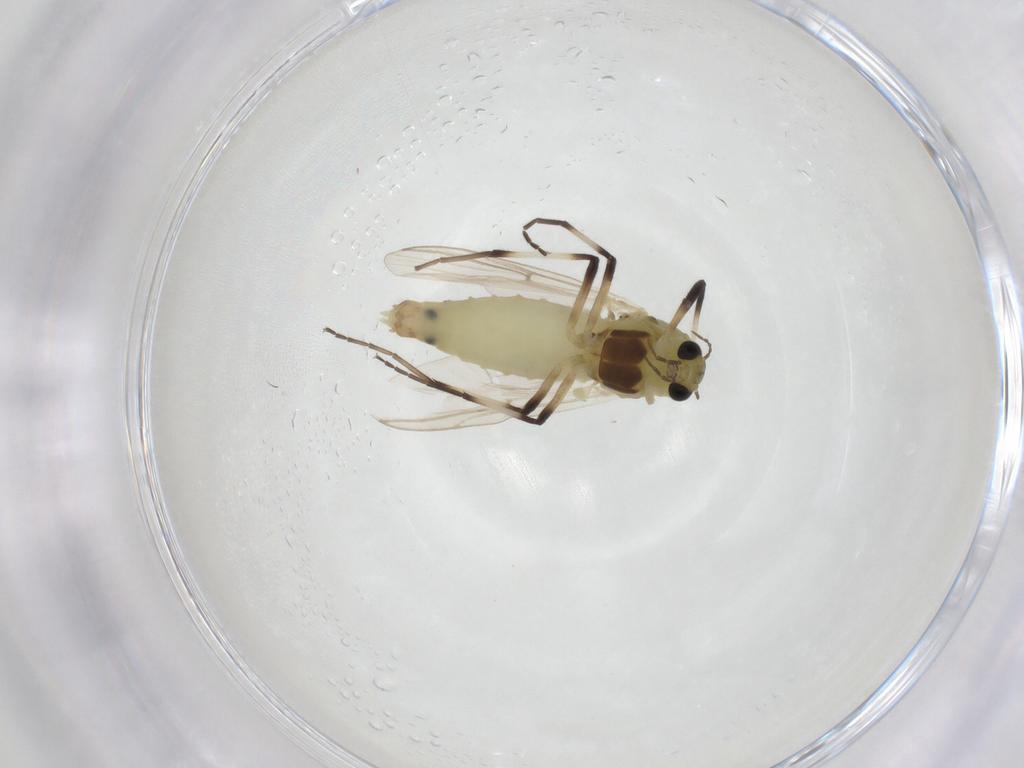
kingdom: Animalia
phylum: Arthropoda
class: Insecta
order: Diptera
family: Chironomidae
